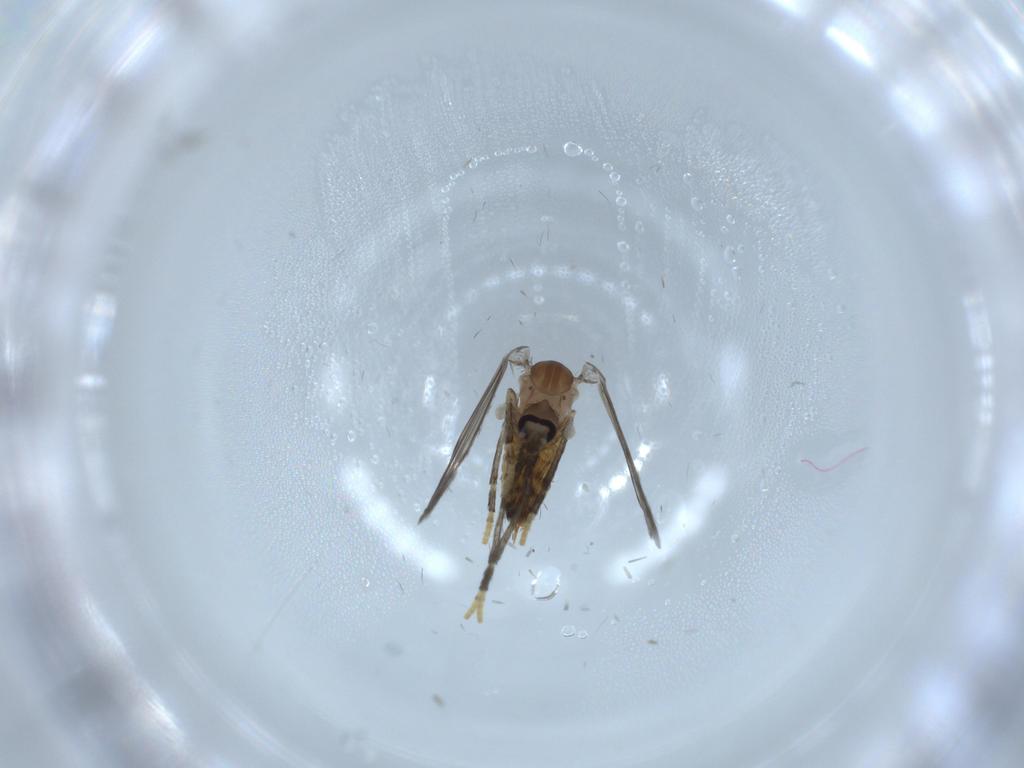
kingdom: Animalia
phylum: Arthropoda
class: Insecta
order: Diptera
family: Psychodidae
